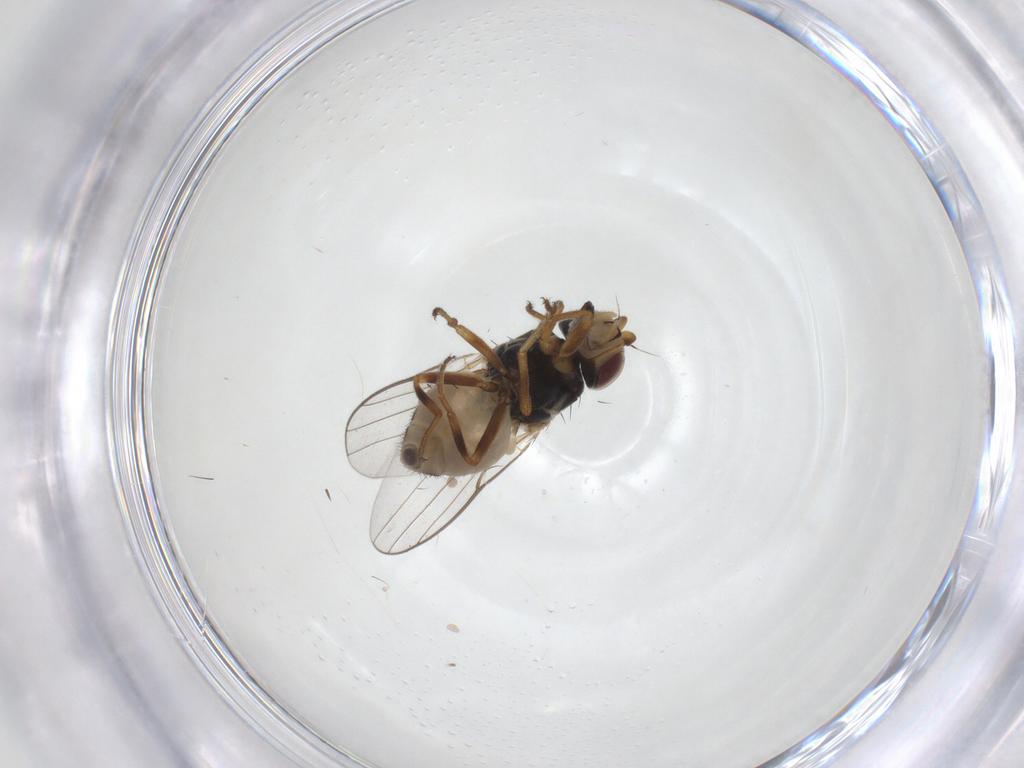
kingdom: Animalia
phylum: Arthropoda
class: Insecta
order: Diptera
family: Chloropidae
